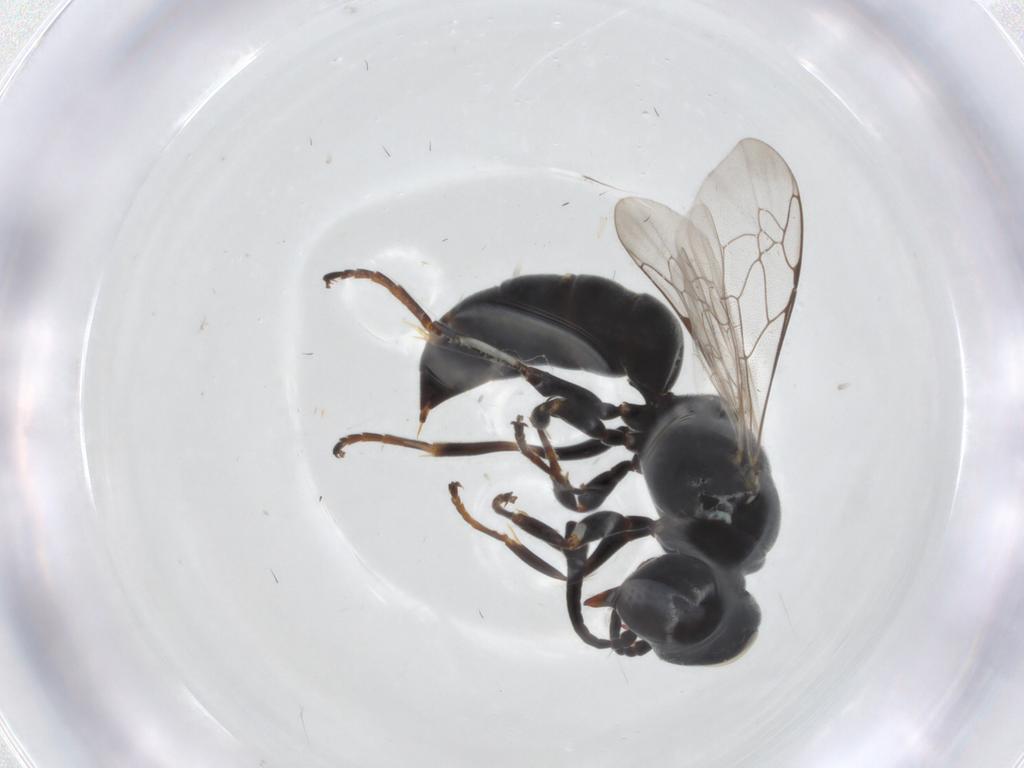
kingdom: Animalia
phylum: Arthropoda
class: Insecta
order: Hymenoptera
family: Crabronidae
